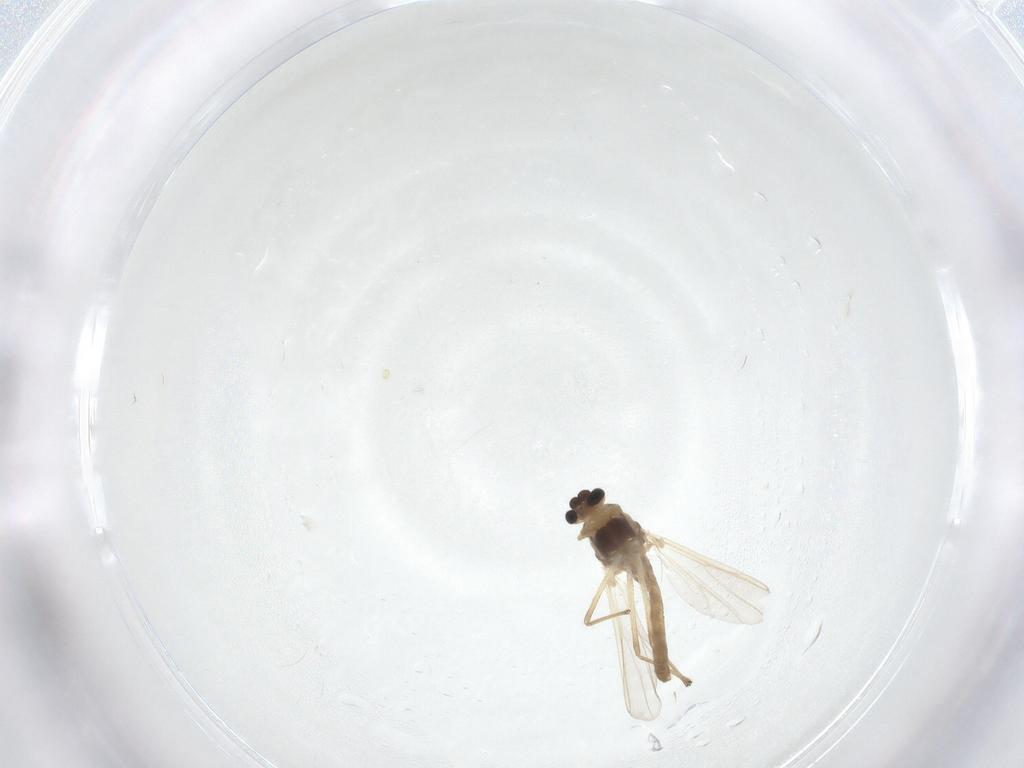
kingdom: Animalia
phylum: Arthropoda
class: Insecta
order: Diptera
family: Chironomidae
